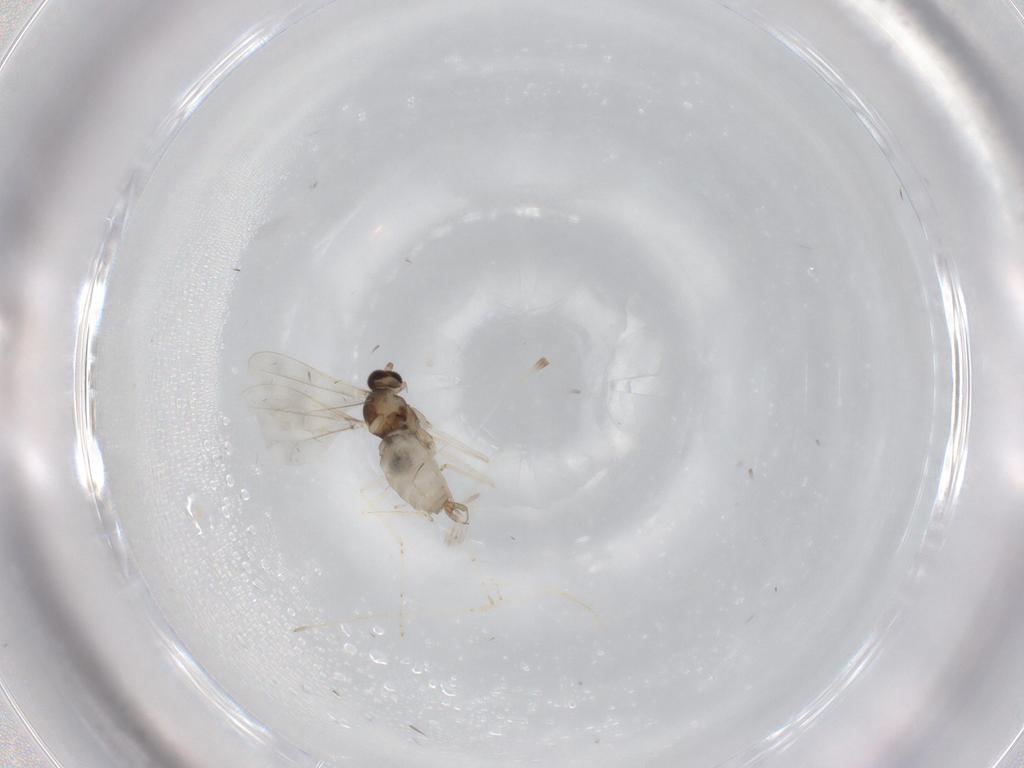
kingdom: Animalia
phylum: Arthropoda
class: Insecta
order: Diptera
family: Cecidomyiidae
